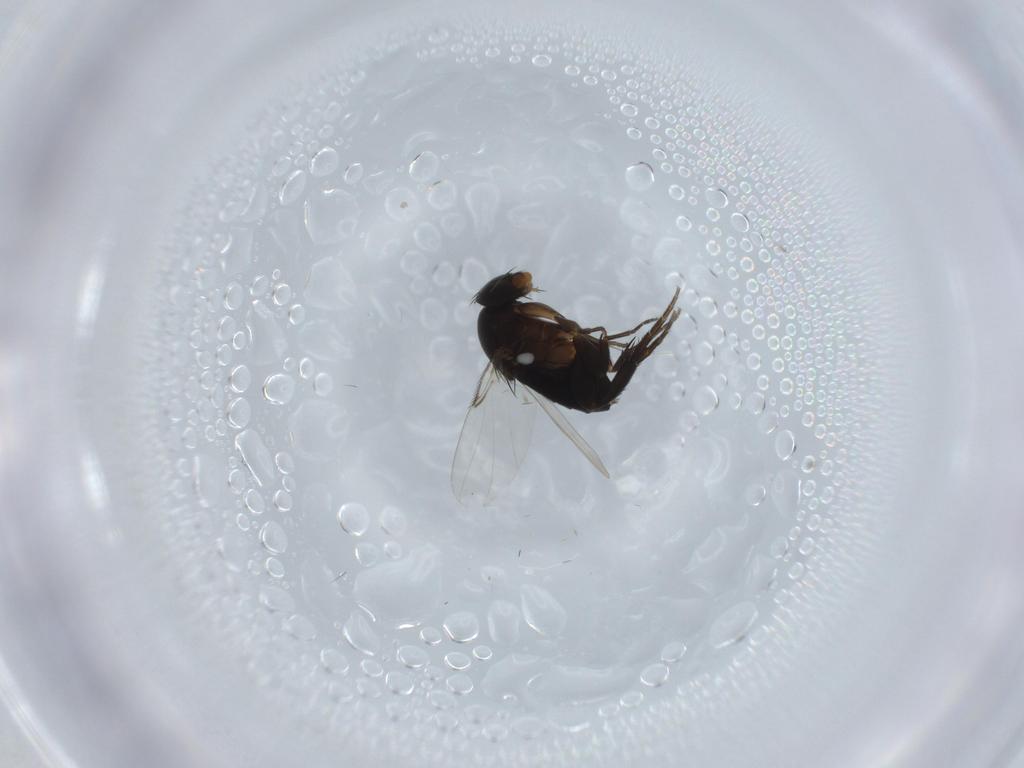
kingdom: Animalia
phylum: Arthropoda
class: Insecta
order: Diptera
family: Phoridae
